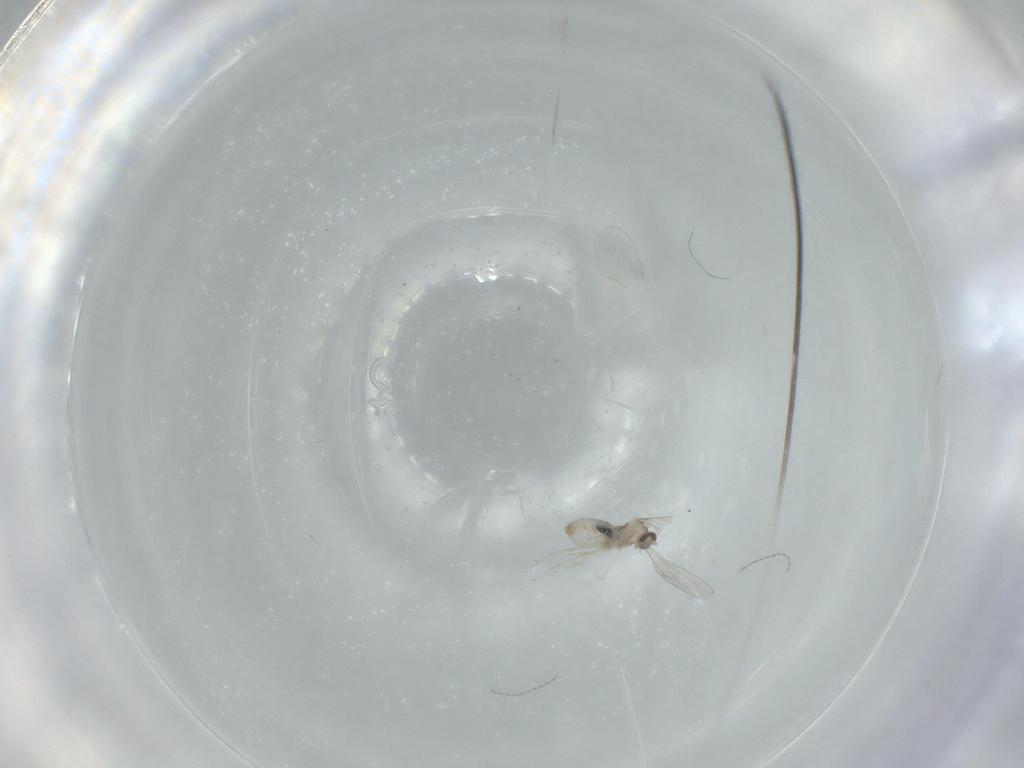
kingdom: Animalia
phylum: Arthropoda
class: Insecta
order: Diptera
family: Cecidomyiidae
